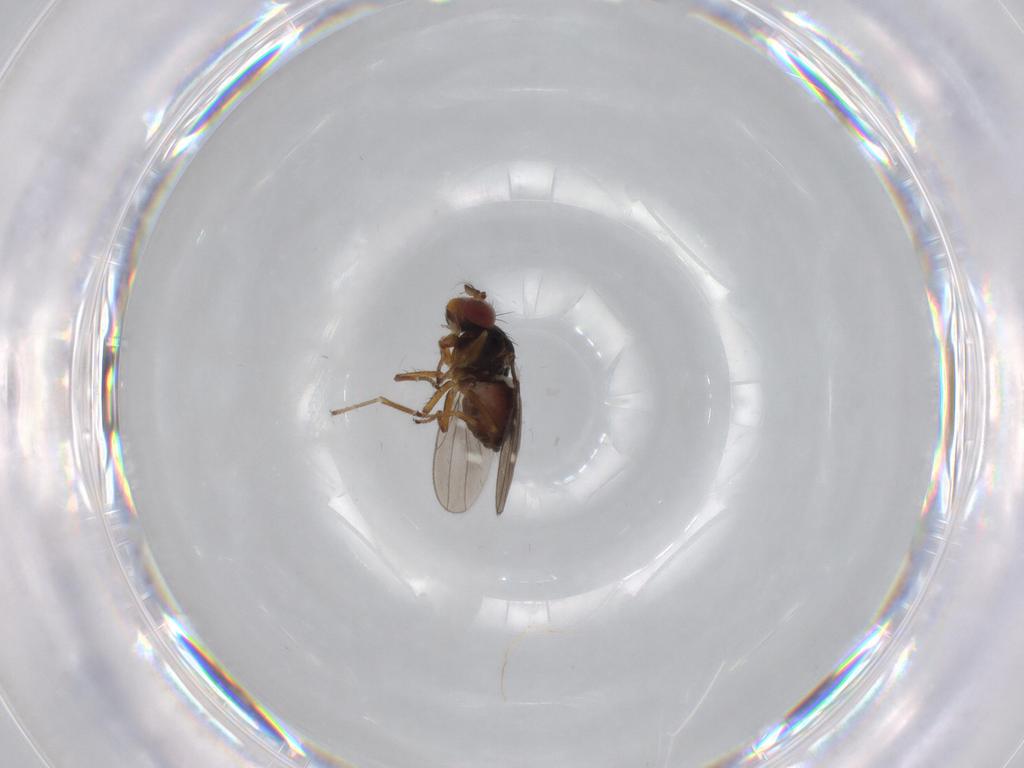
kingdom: Animalia
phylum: Arthropoda
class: Insecta
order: Diptera
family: Ephydridae
